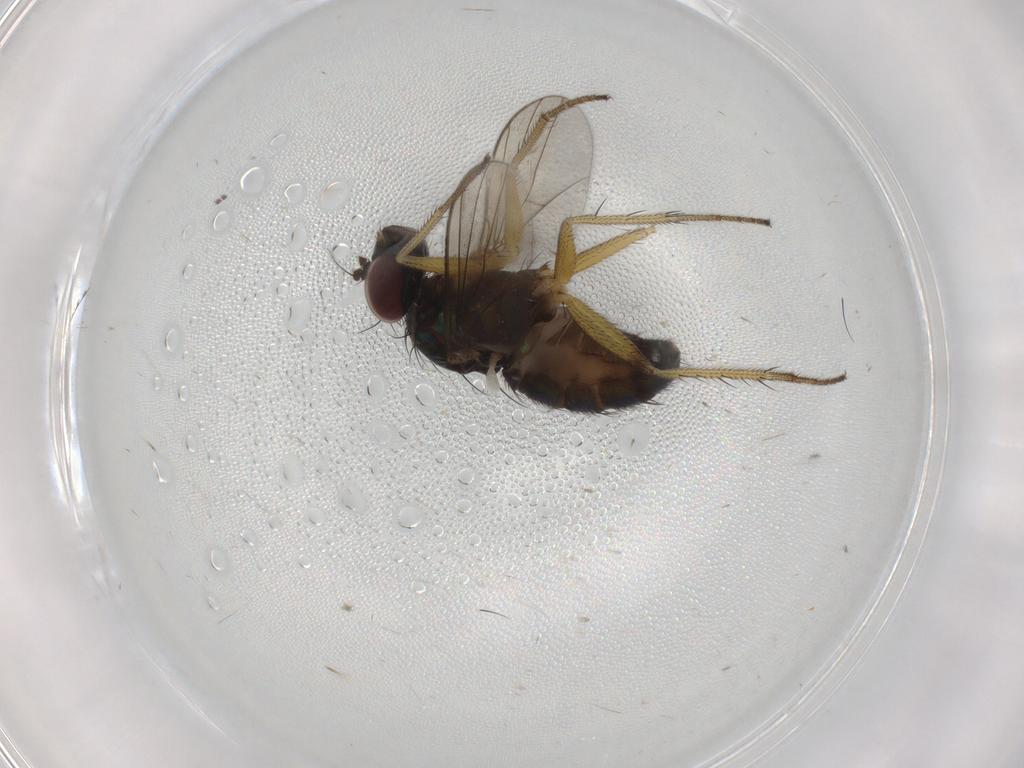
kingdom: Animalia
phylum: Arthropoda
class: Insecta
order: Diptera
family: Dolichopodidae
